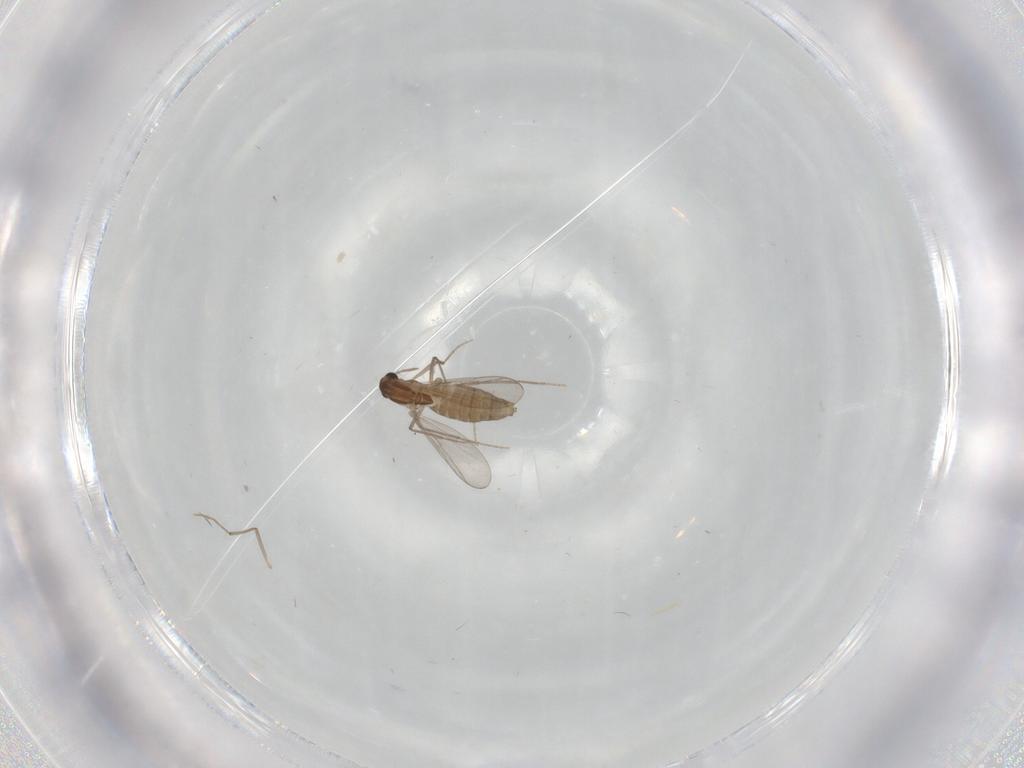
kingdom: Animalia
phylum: Arthropoda
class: Insecta
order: Diptera
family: Chironomidae
